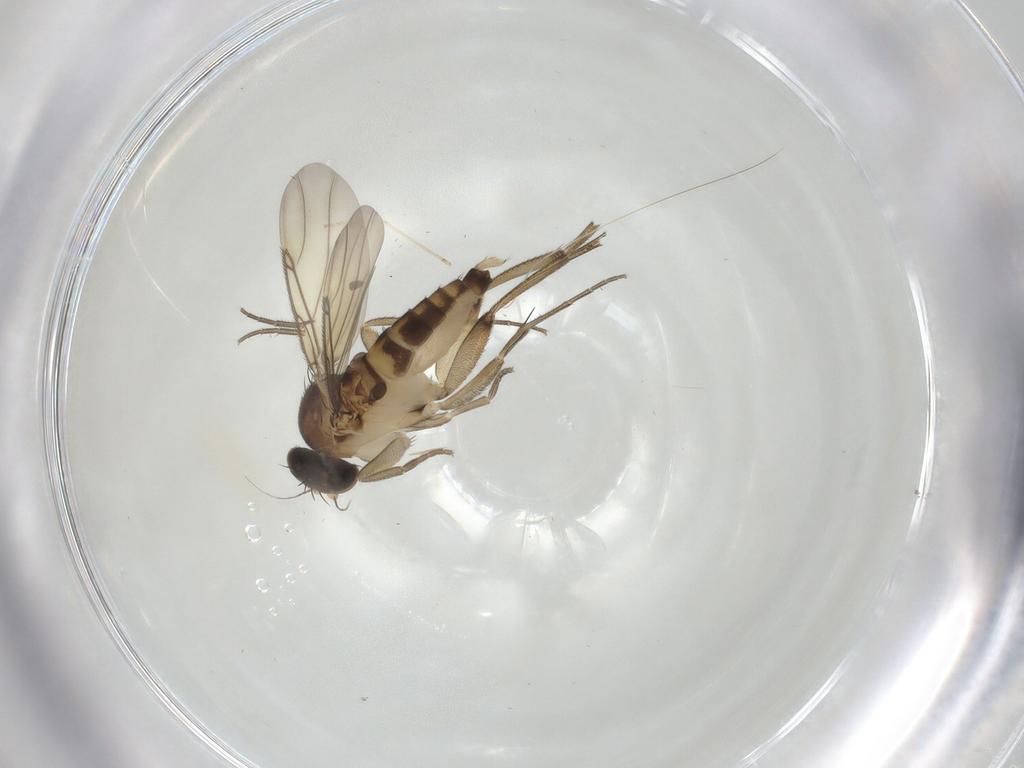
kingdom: Animalia
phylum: Arthropoda
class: Insecta
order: Diptera
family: Phoridae
